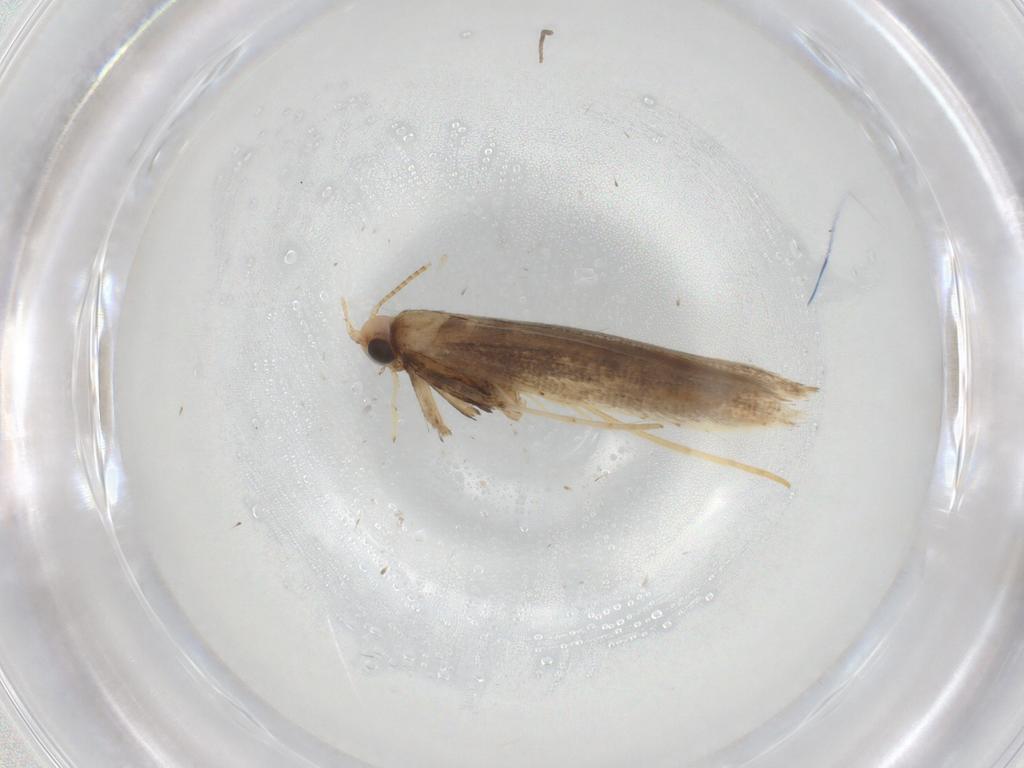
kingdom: Animalia
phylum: Arthropoda
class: Insecta
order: Lepidoptera
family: Gracillariidae
